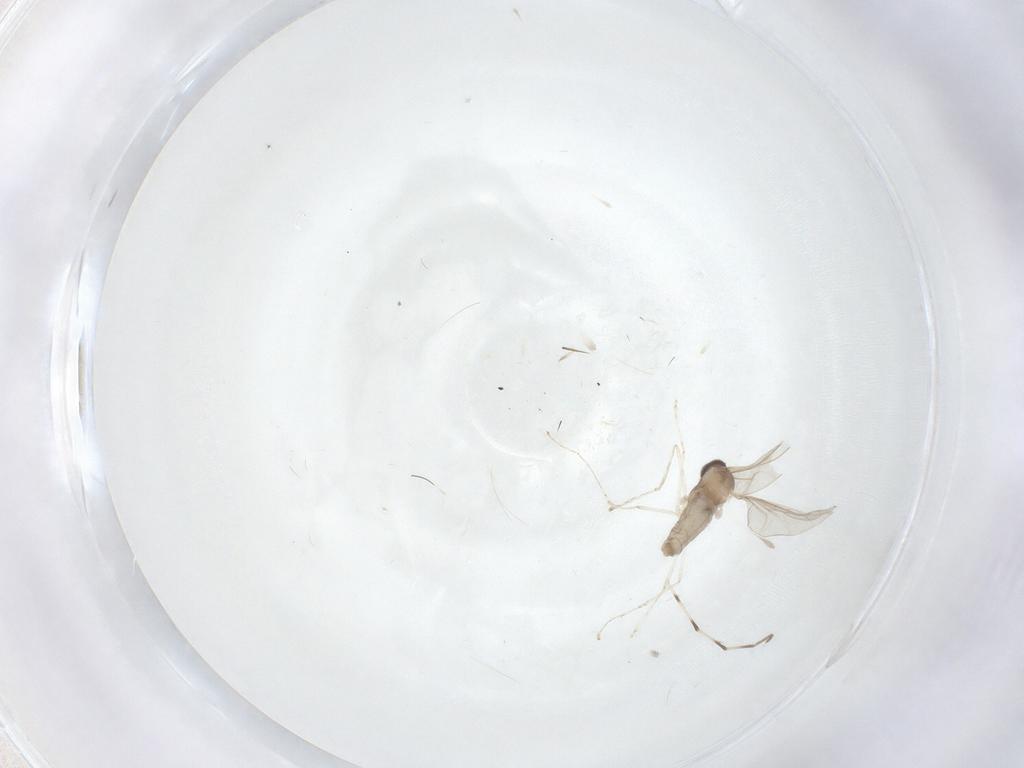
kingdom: Animalia
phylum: Arthropoda
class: Insecta
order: Diptera
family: Cecidomyiidae
